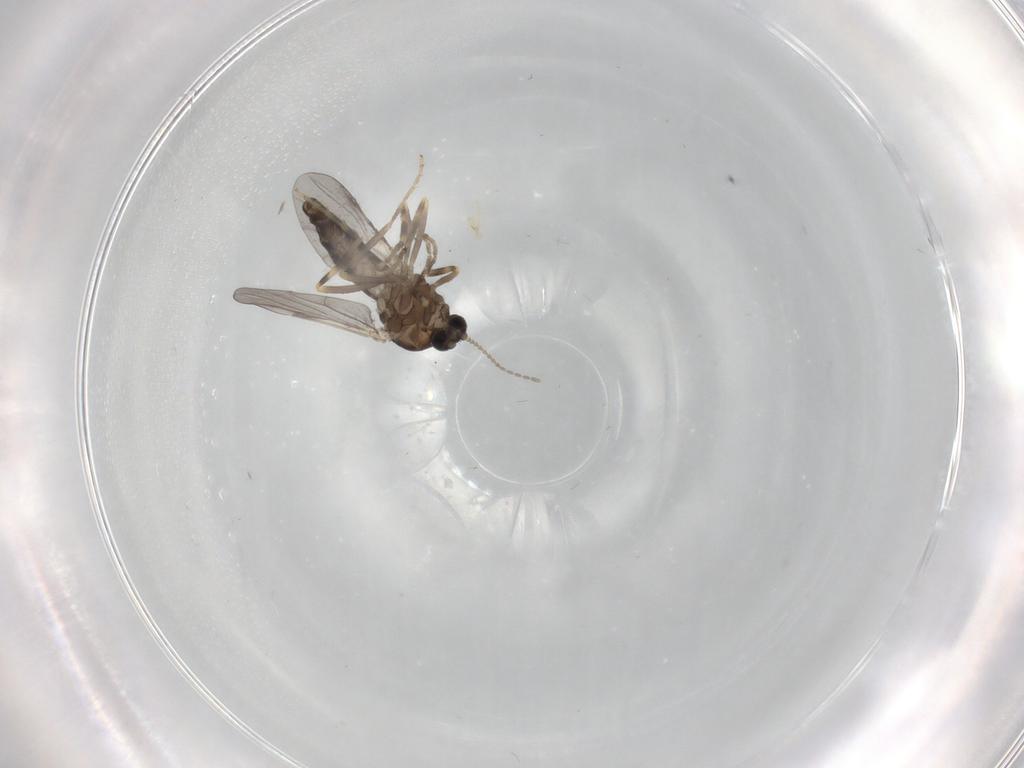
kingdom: Animalia
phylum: Arthropoda
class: Insecta
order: Diptera
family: Ceratopogonidae
